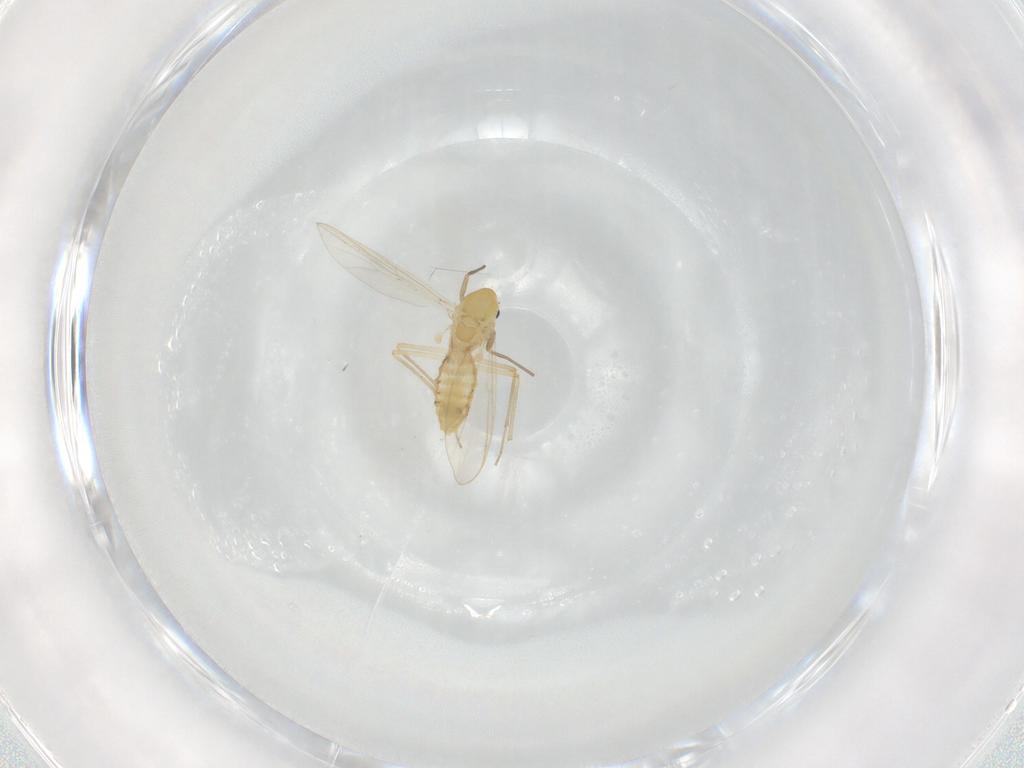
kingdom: Animalia
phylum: Arthropoda
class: Insecta
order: Diptera
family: Chironomidae
